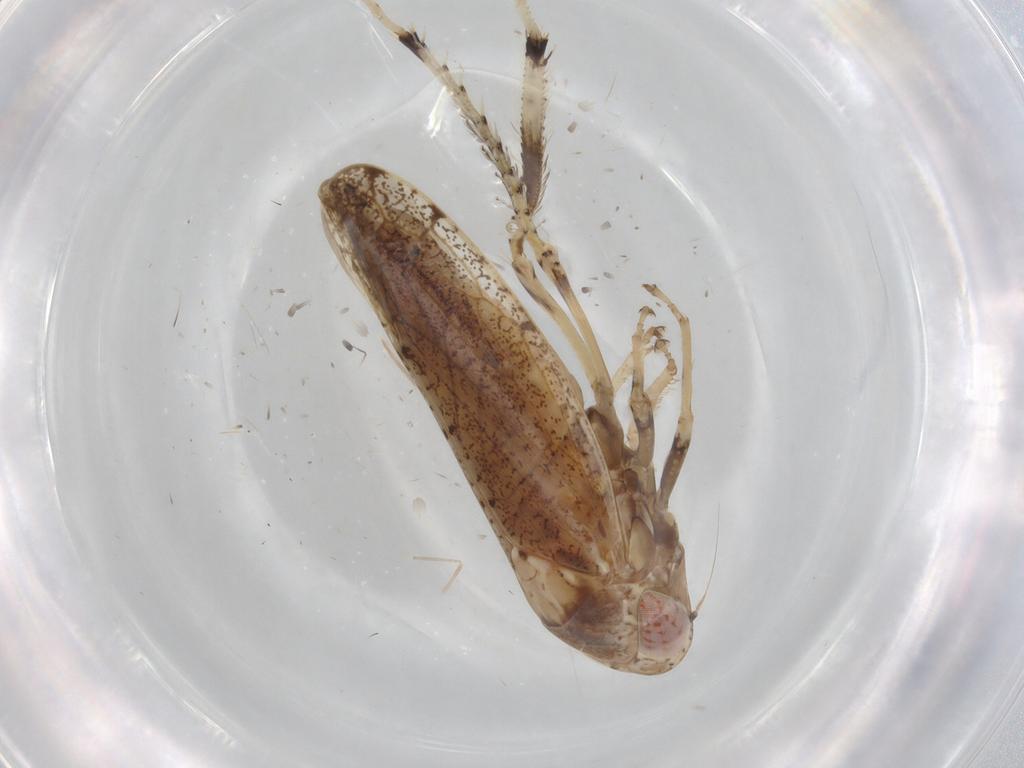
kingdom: Animalia
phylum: Arthropoda
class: Insecta
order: Hemiptera
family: Cicadellidae
